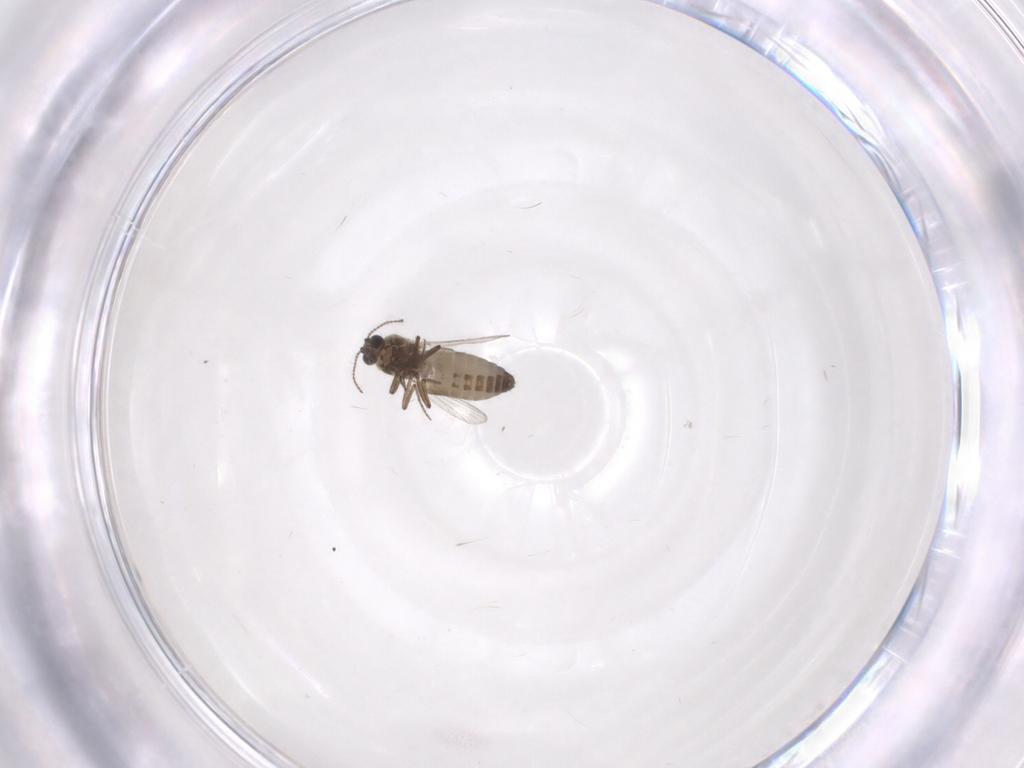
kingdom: Animalia
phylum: Arthropoda
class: Insecta
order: Diptera
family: Ceratopogonidae
